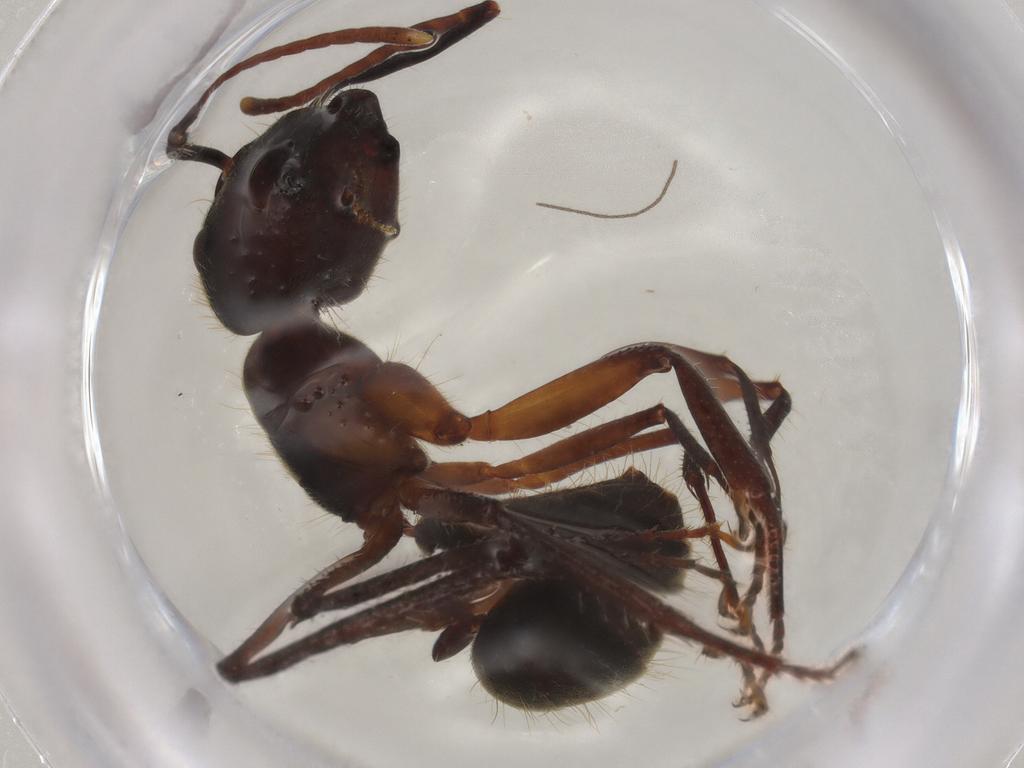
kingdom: Animalia
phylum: Arthropoda
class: Insecta
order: Hymenoptera
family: Formicidae
